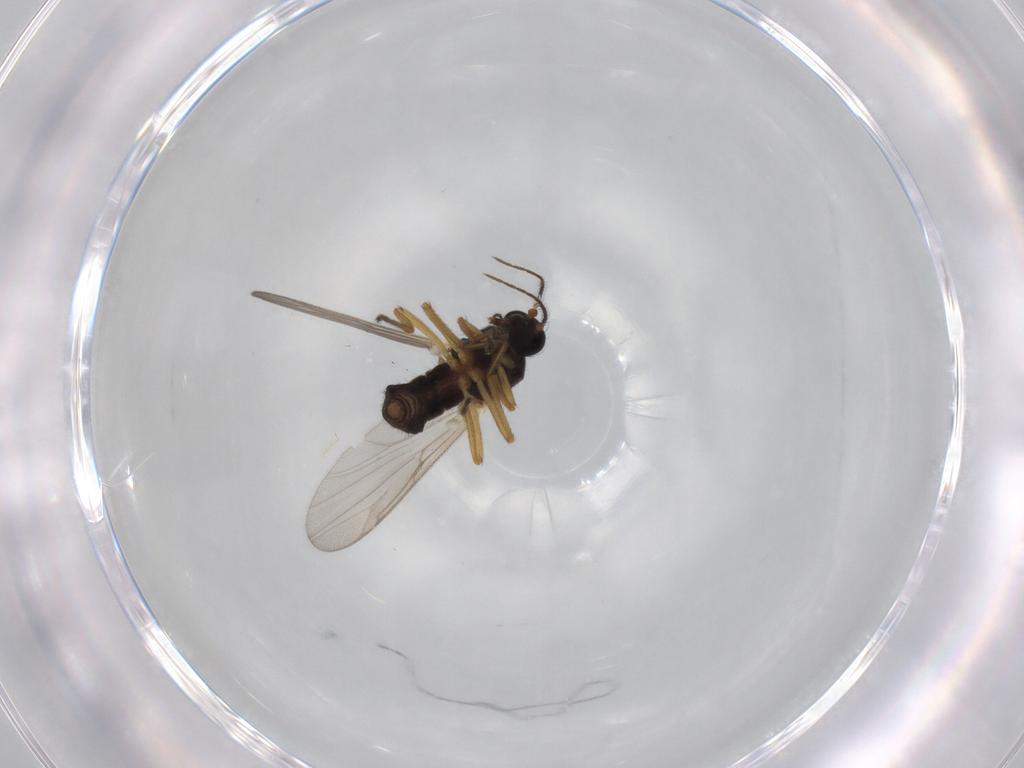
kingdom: Animalia
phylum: Arthropoda
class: Insecta
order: Diptera
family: Ceratopogonidae
